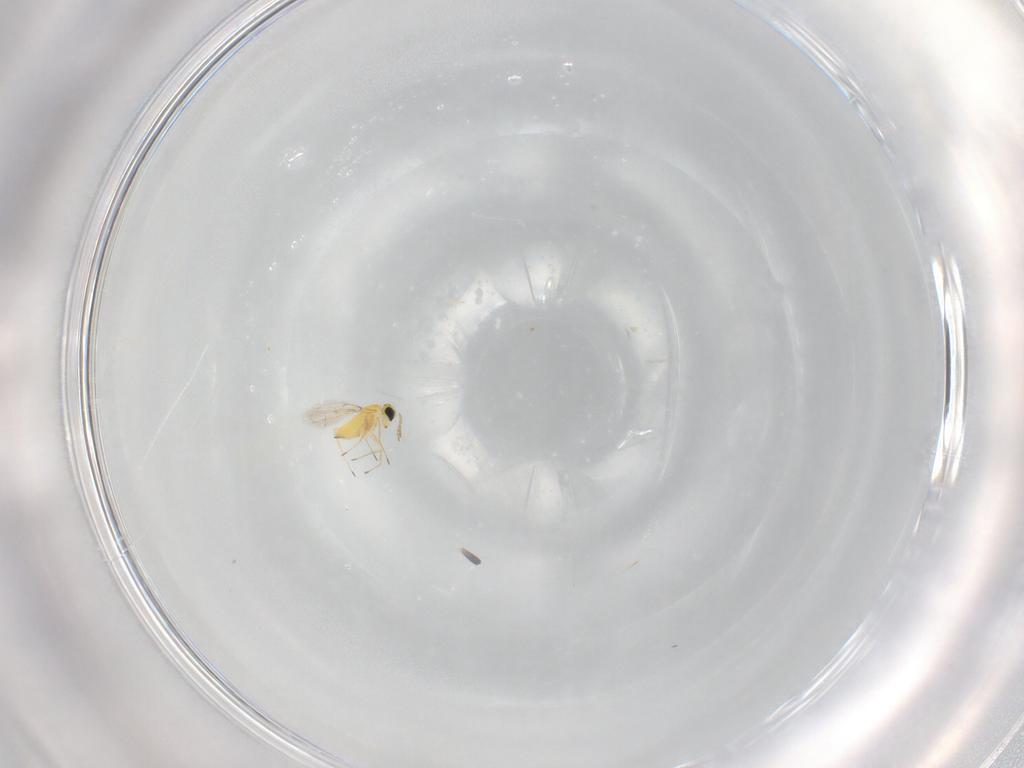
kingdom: Animalia
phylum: Arthropoda
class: Insecta
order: Hymenoptera
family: Trichogrammatidae
